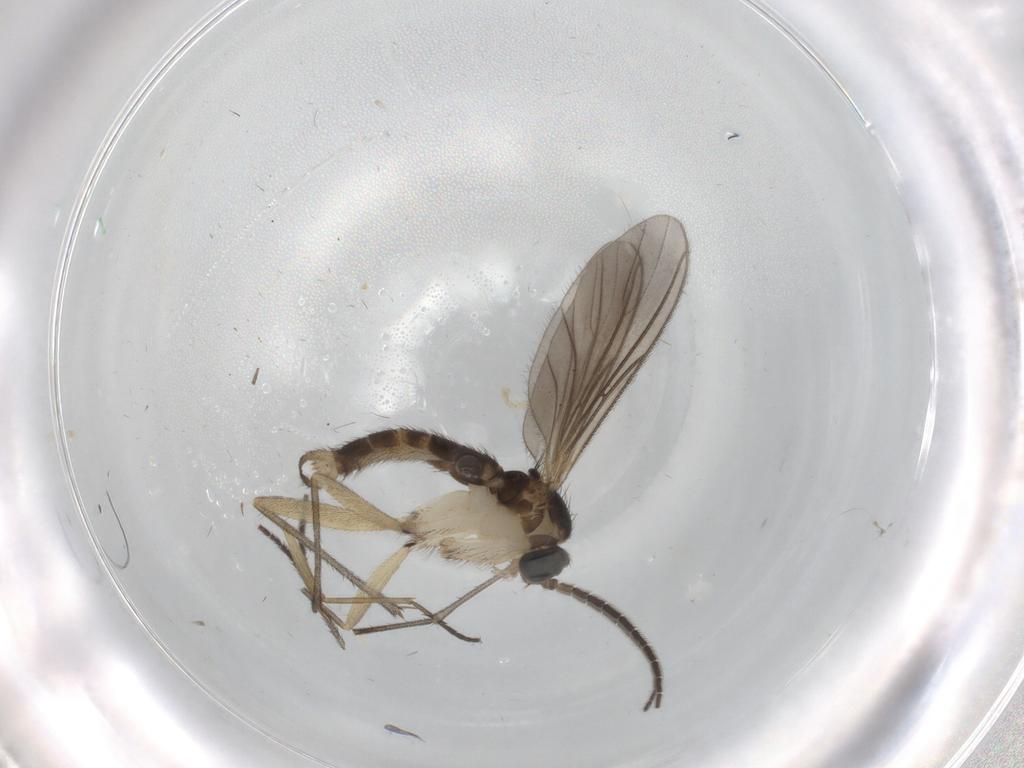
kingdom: Animalia
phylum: Arthropoda
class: Insecta
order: Diptera
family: Sciaridae
